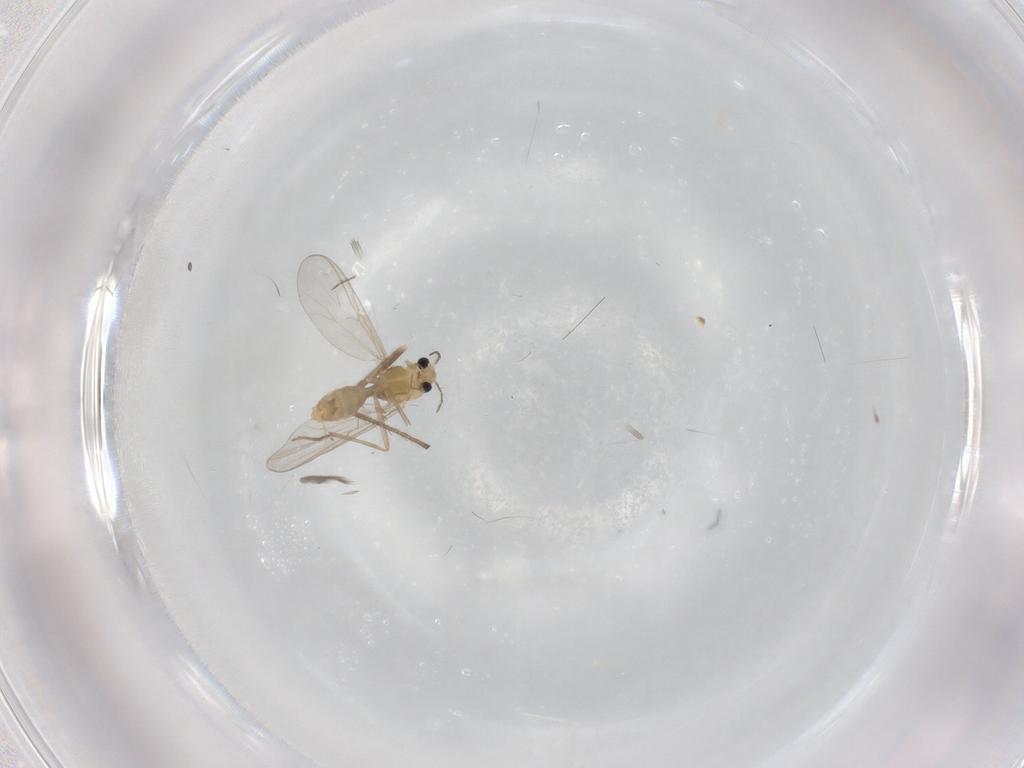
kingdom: Animalia
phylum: Arthropoda
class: Insecta
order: Diptera
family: Chironomidae
